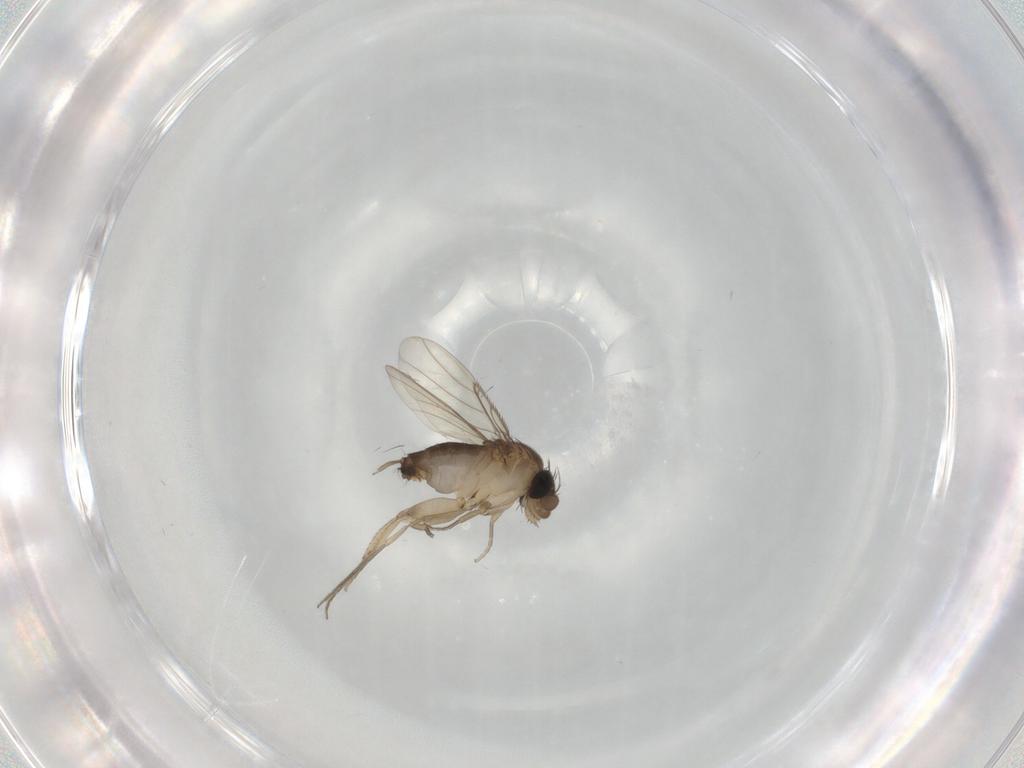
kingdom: Animalia
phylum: Arthropoda
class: Insecta
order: Diptera
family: Phoridae
